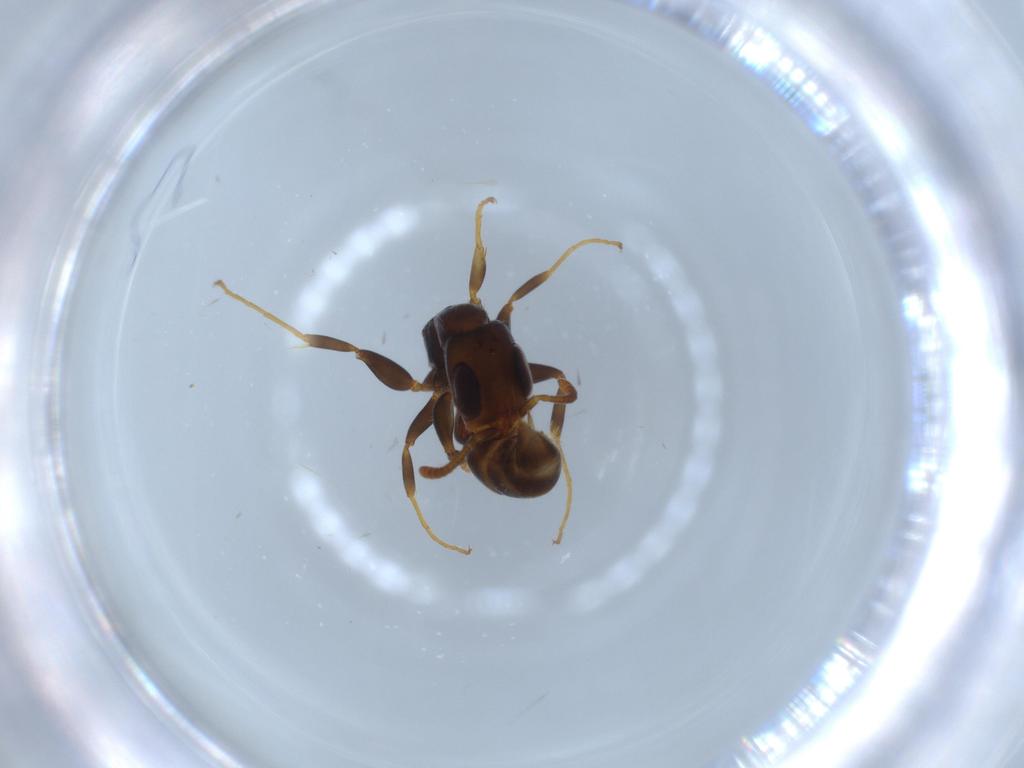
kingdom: Animalia
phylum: Arthropoda
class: Insecta
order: Hymenoptera
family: Formicidae
